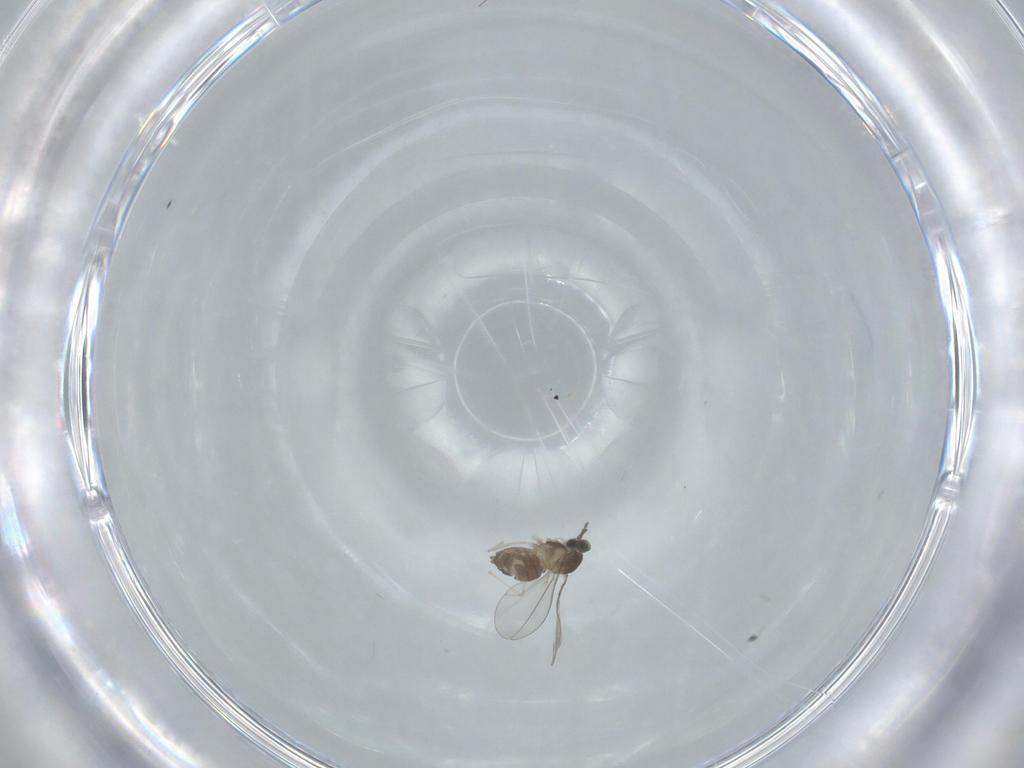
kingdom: Animalia
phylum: Arthropoda
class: Insecta
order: Diptera
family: Cecidomyiidae
